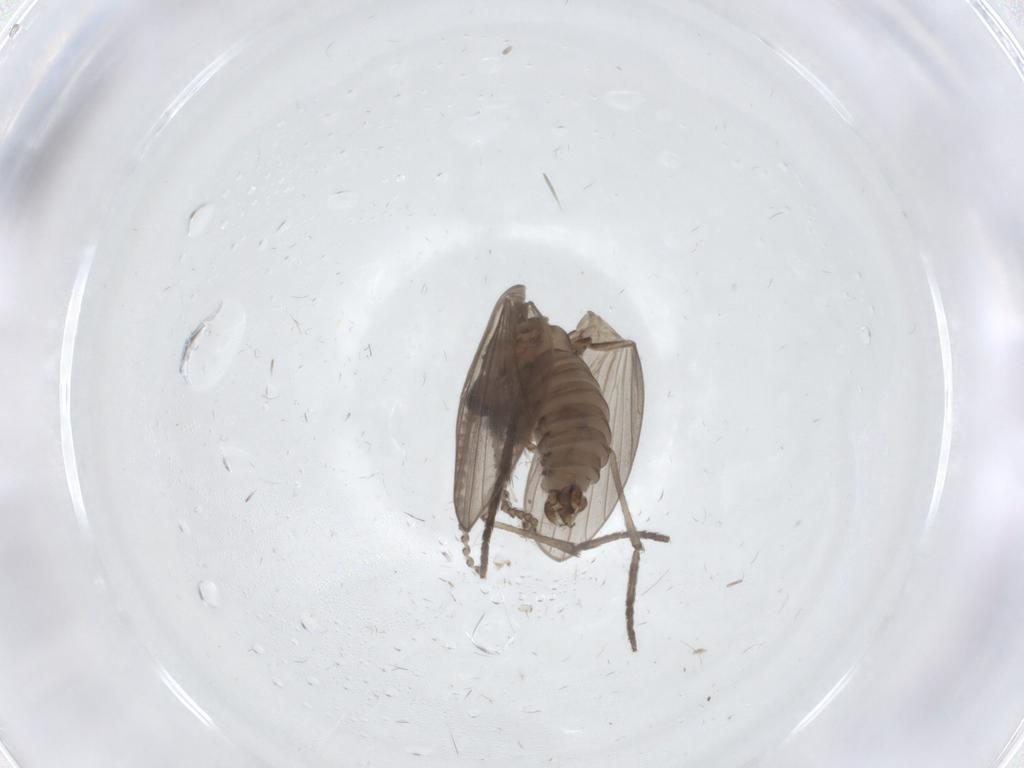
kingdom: Animalia
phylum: Arthropoda
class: Insecta
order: Diptera
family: Psychodidae
